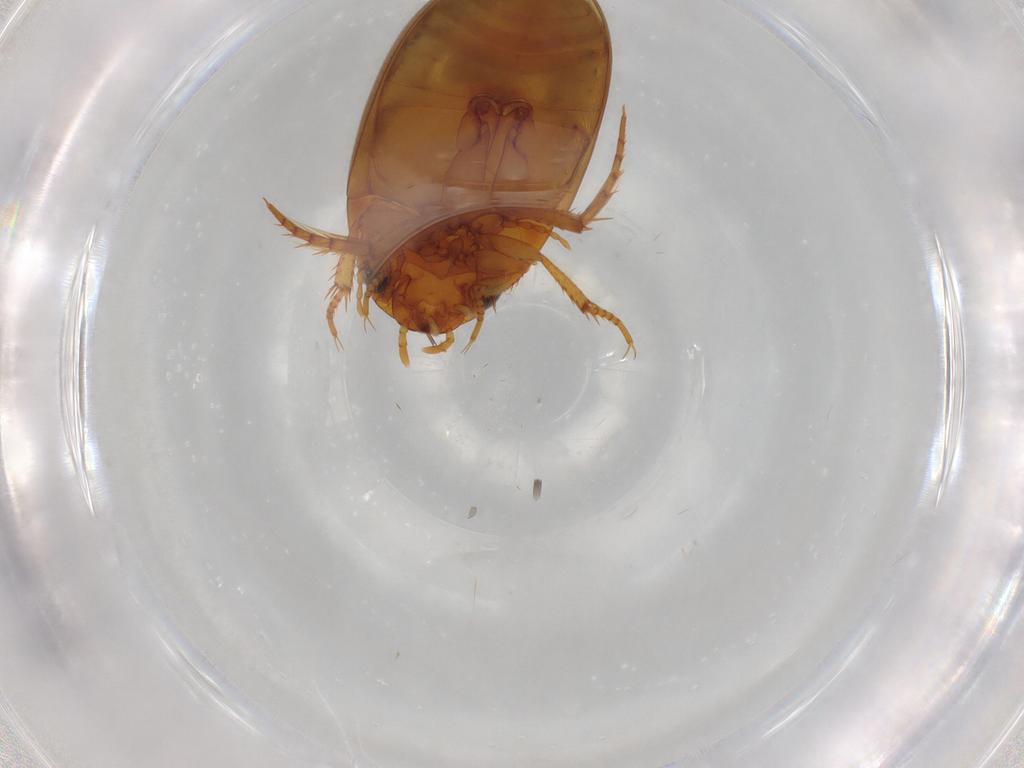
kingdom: Animalia
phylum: Arthropoda
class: Insecta
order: Coleoptera
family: Dytiscidae
